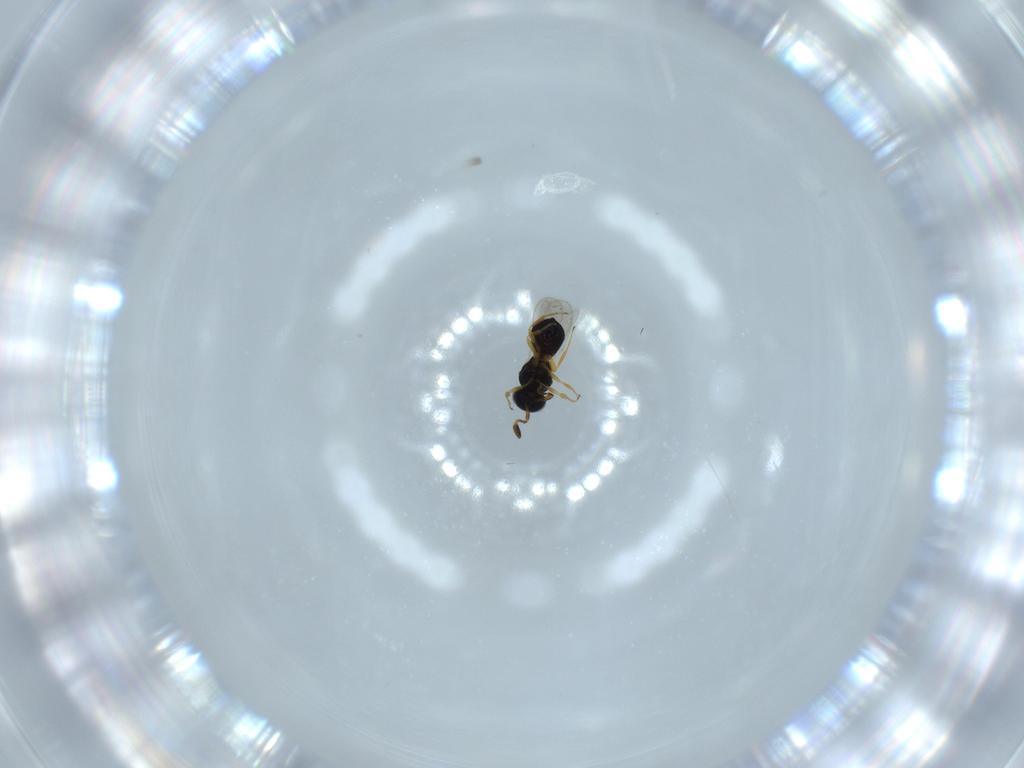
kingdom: Animalia
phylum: Arthropoda
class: Insecta
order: Hymenoptera
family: Eupelmidae
